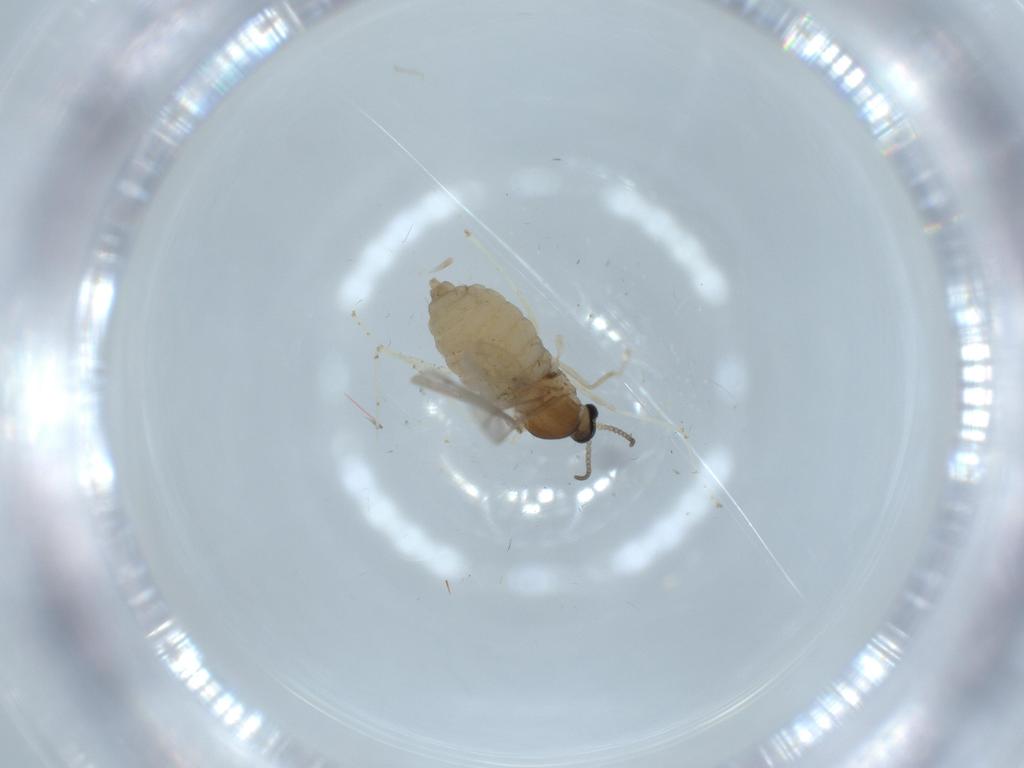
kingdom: Animalia
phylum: Arthropoda
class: Insecta
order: Diptera
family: Cecidomyiidae
